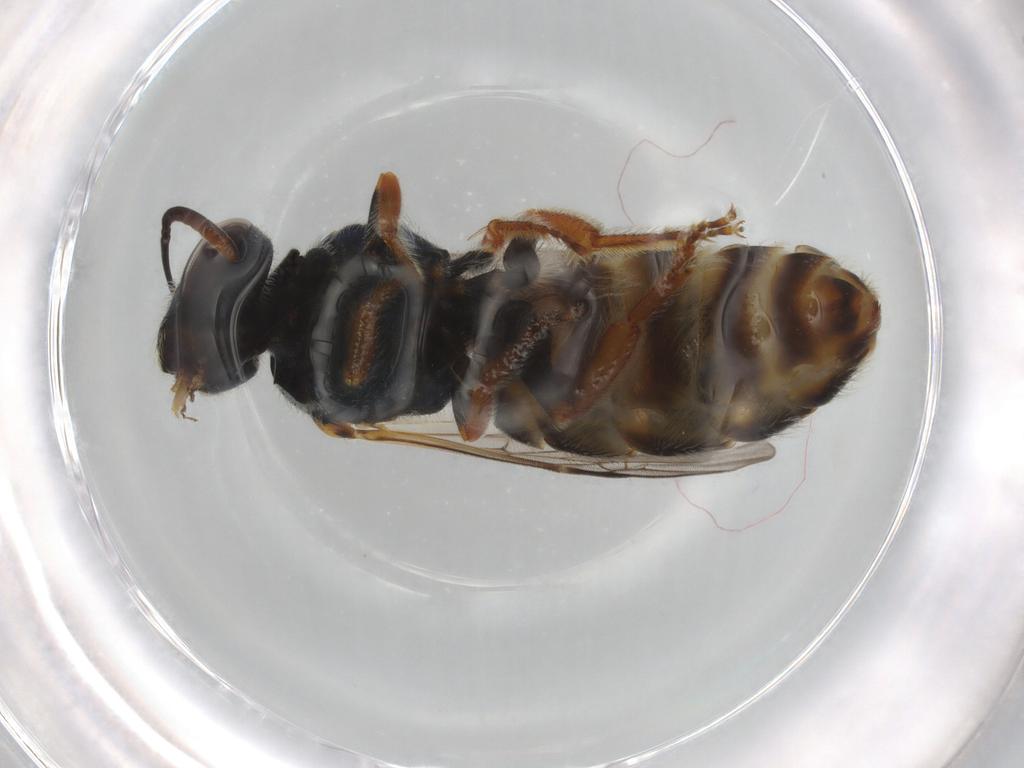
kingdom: Animalia
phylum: Arthropoda
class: Insecta
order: Hymenoptera
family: Halictidae
